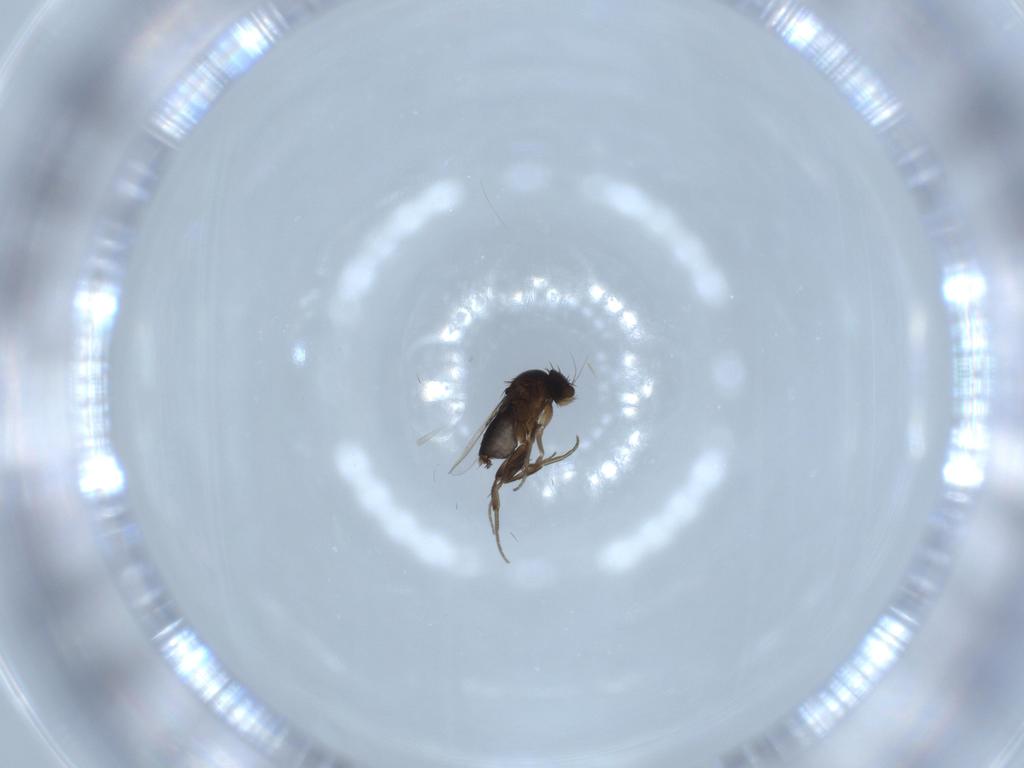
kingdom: Animalia
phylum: Arthropoda
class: Insecta
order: Diptera
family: Phoridae
